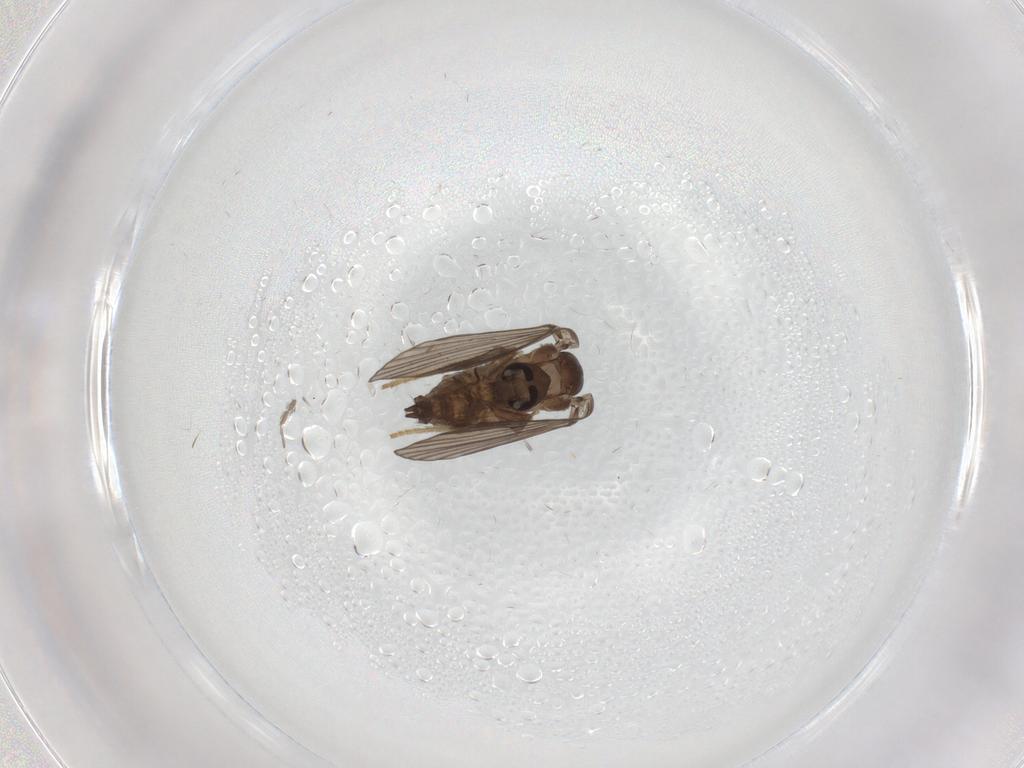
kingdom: Animalia
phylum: Arthropoda
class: Insecta
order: Diptera
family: Drosophilidae
